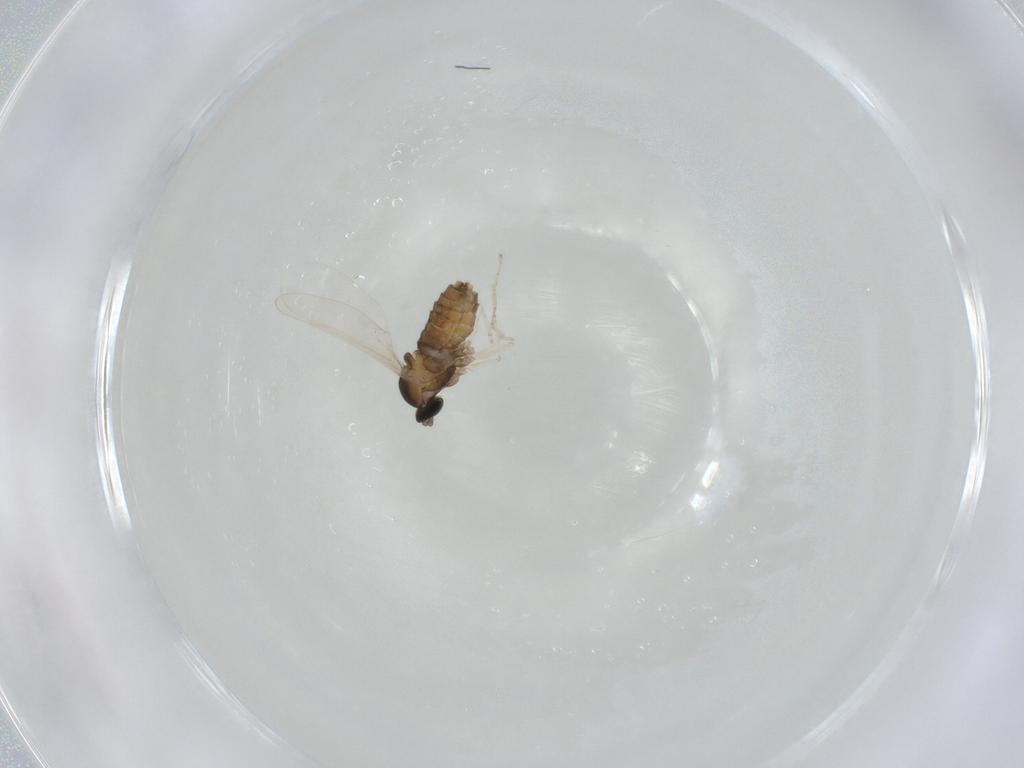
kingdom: Animalia
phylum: Arthropoda
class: Insecta
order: Diptera
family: Chyromyidae
